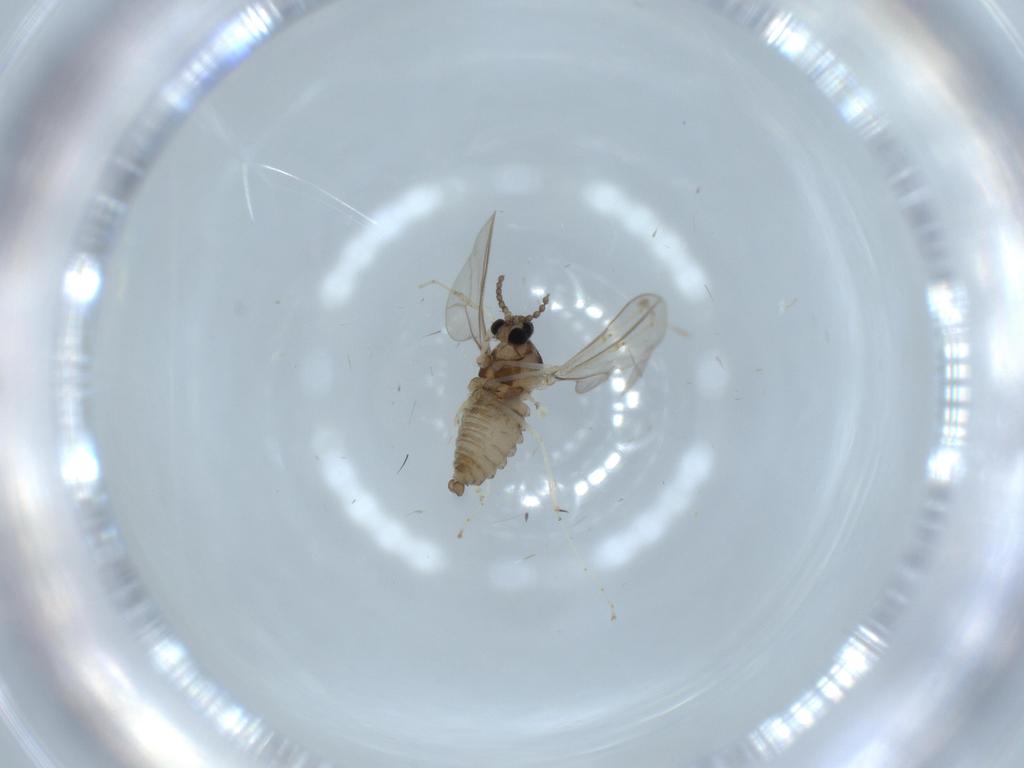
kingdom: Animalia
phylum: Arthropoda
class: Insecta
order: Diptera
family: Cecidomyiidae
